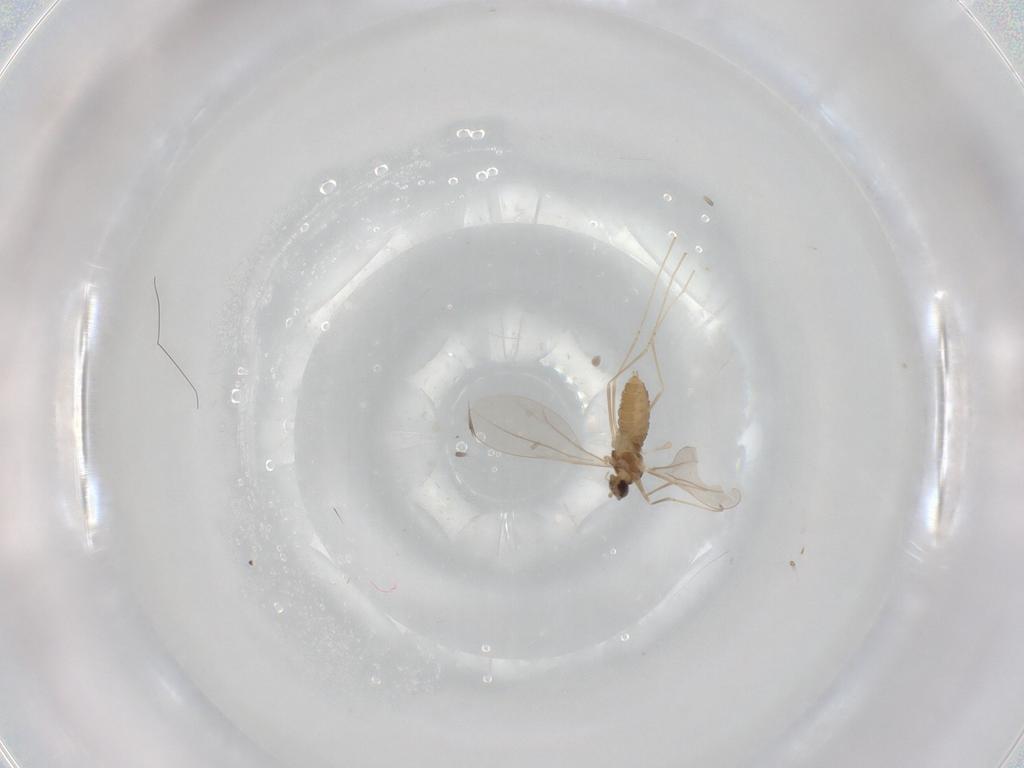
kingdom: Animalia
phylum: Arthropoda
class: Insecta
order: Diptera
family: Cecidomyiidae
